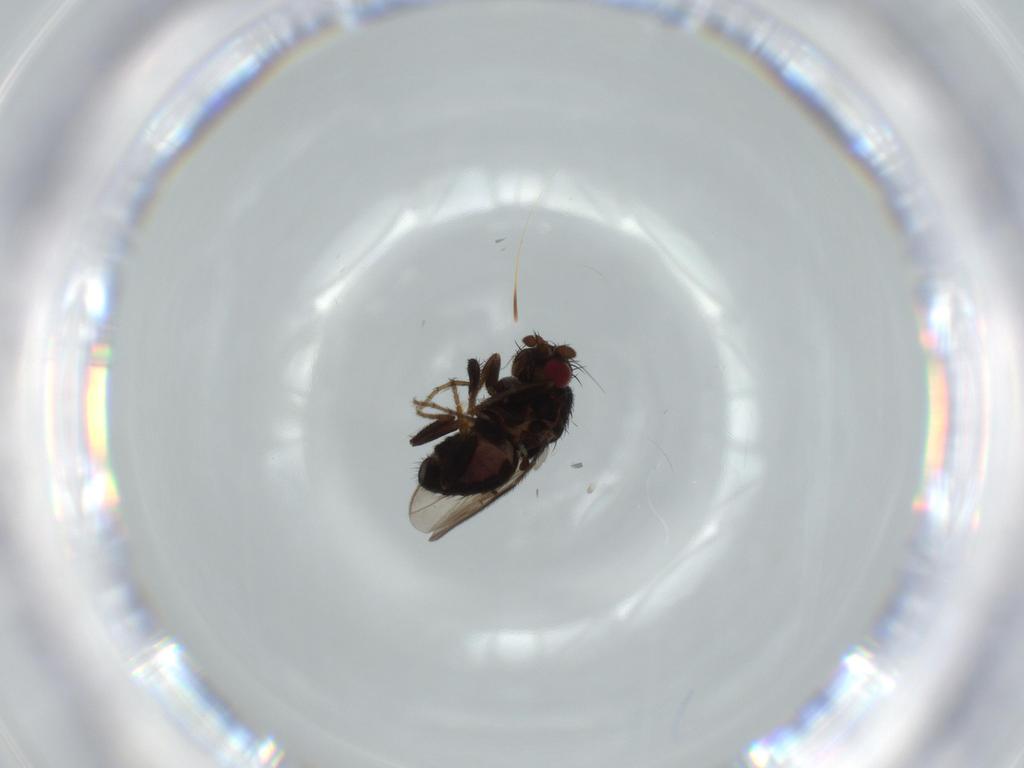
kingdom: Animalia
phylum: Arthropoda
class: Insecta
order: Diptera
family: Sphaeroceridae
